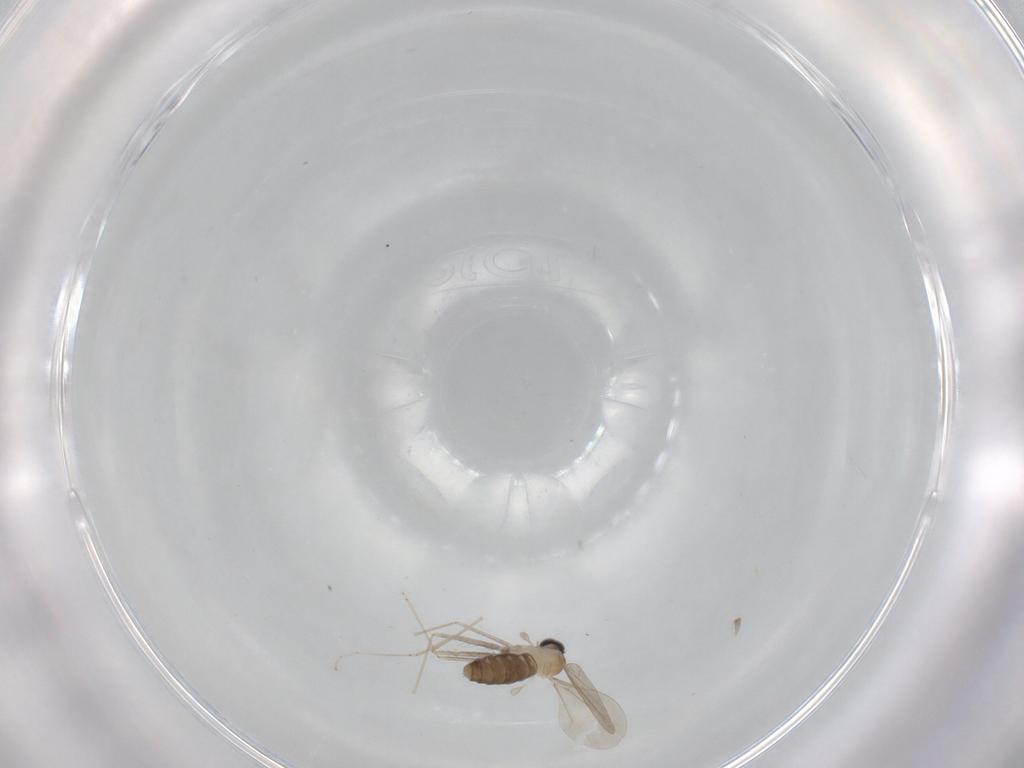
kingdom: Animalia
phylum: Arthropoda
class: Insecta
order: Diptera
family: Cecidomyiidae
